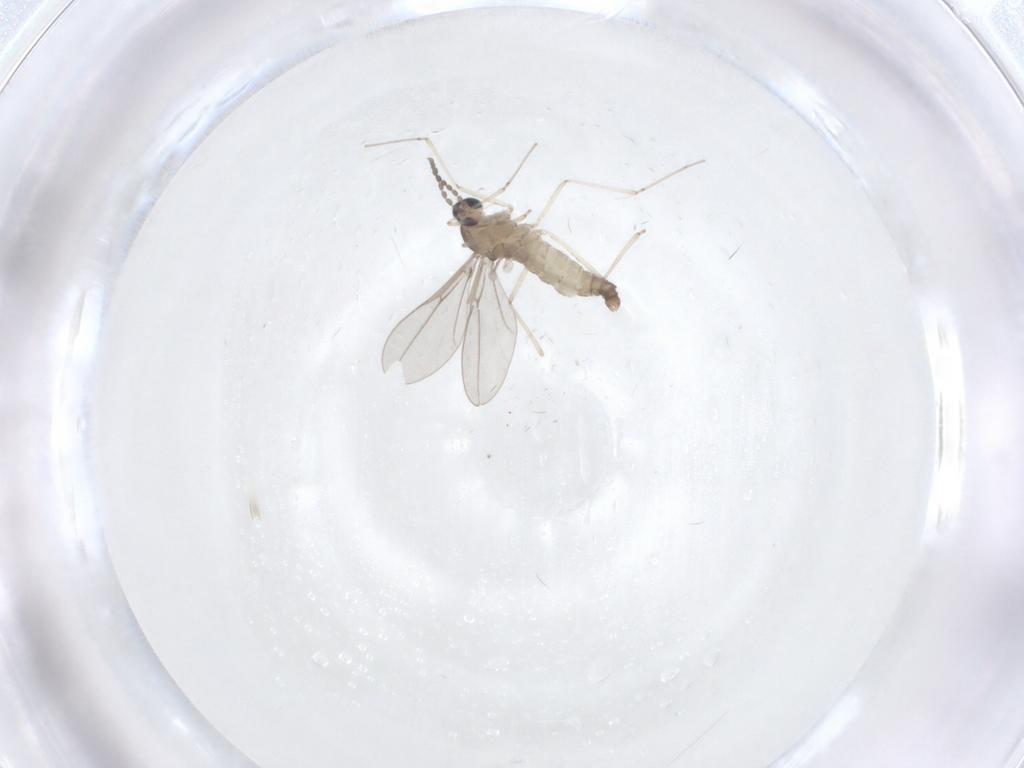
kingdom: Animalia
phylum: Arthropoda
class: Insecta
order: Diptera
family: Cecidomyiidae
